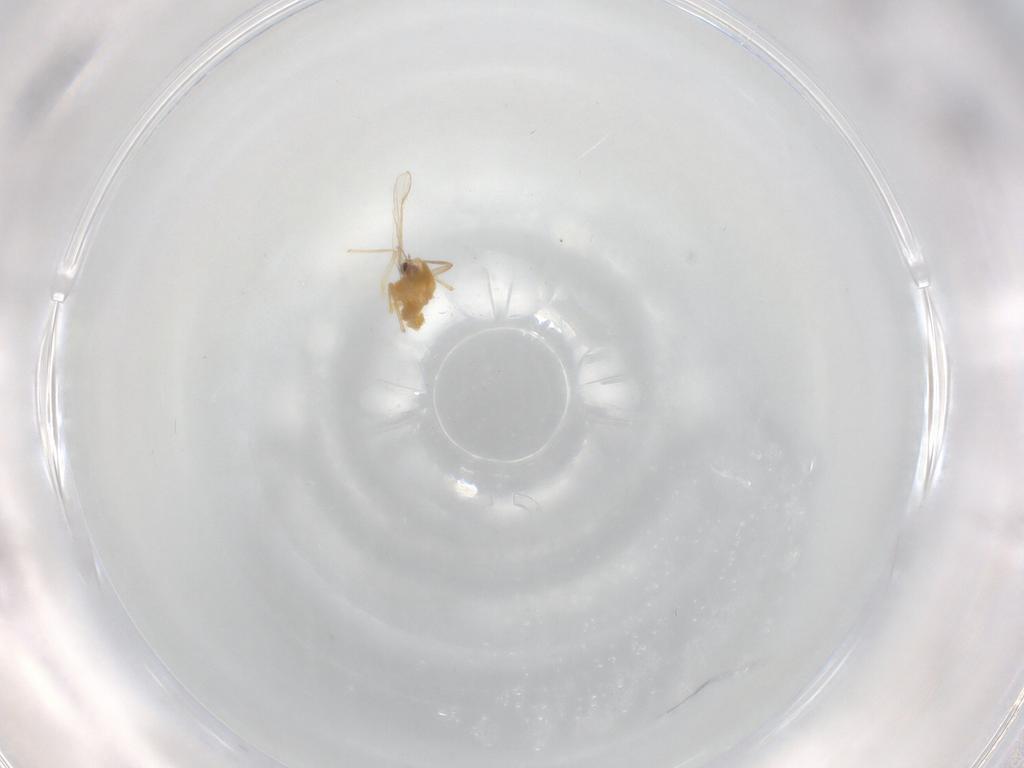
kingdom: Animalia
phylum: Arthropoda
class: Insecta
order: Diptera
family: Chironomidae
